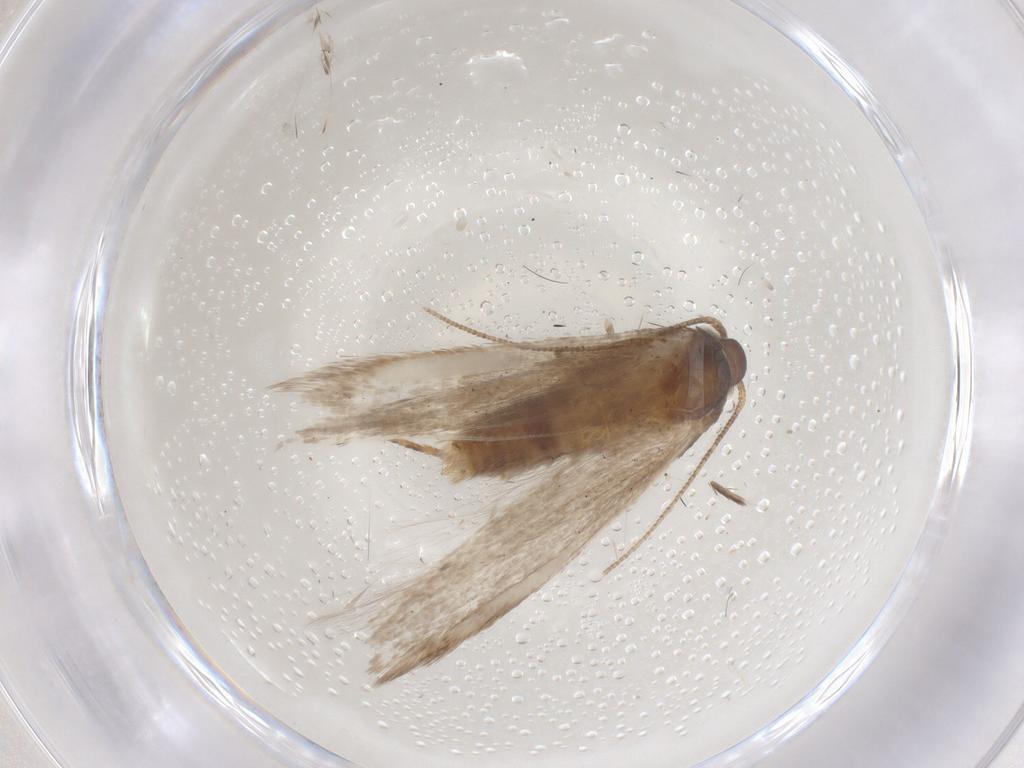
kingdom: Animalia
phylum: Arthropoda
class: Insecta
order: Lepidoptera
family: Coleophoridae
